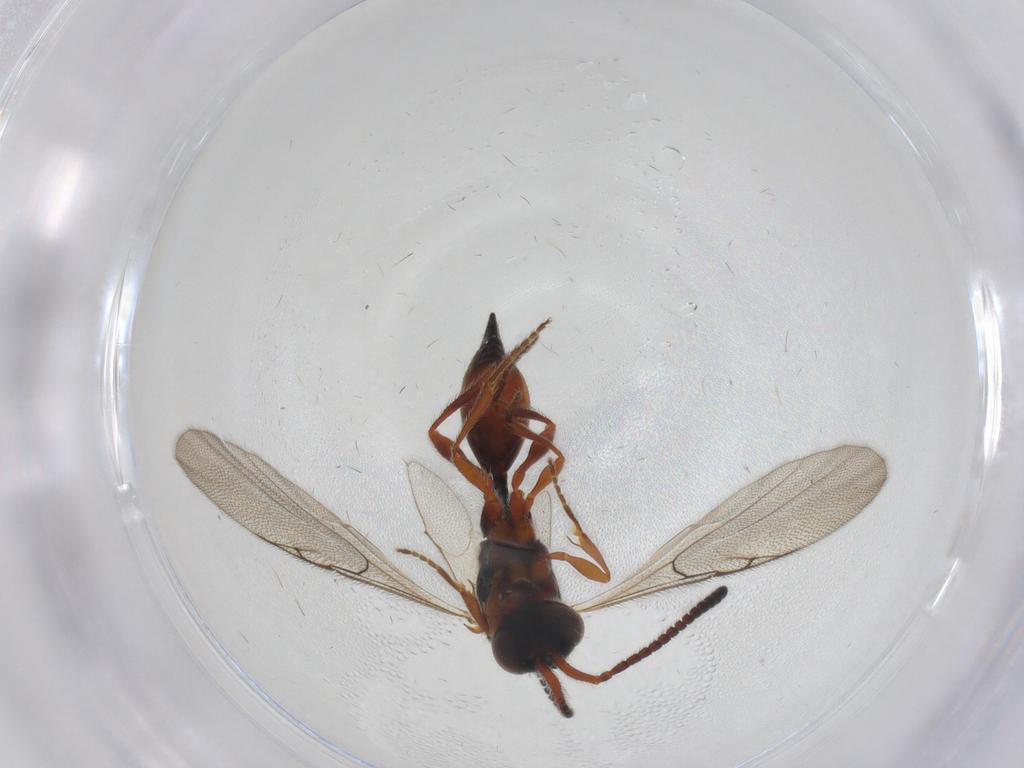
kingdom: Animalia
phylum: Arthropoda
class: Insecta
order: Hymenoptera
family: Diapriidae
